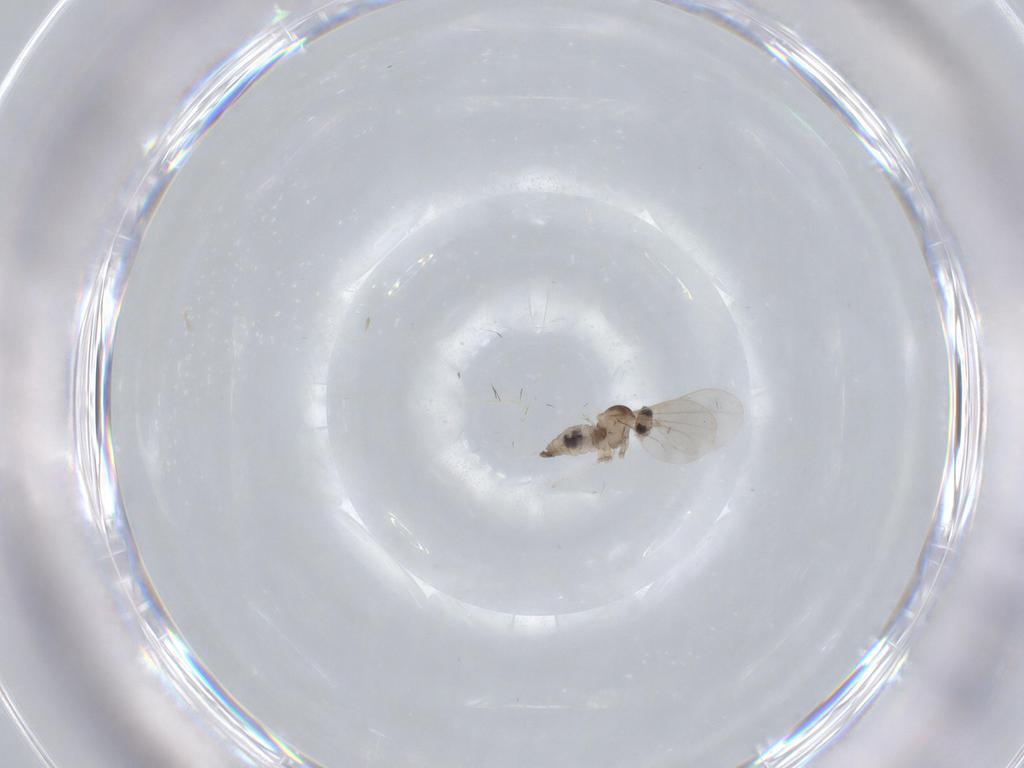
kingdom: Animalia
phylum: Arthropoda
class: Insecta
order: Diptera
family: Cecidomyiidae
